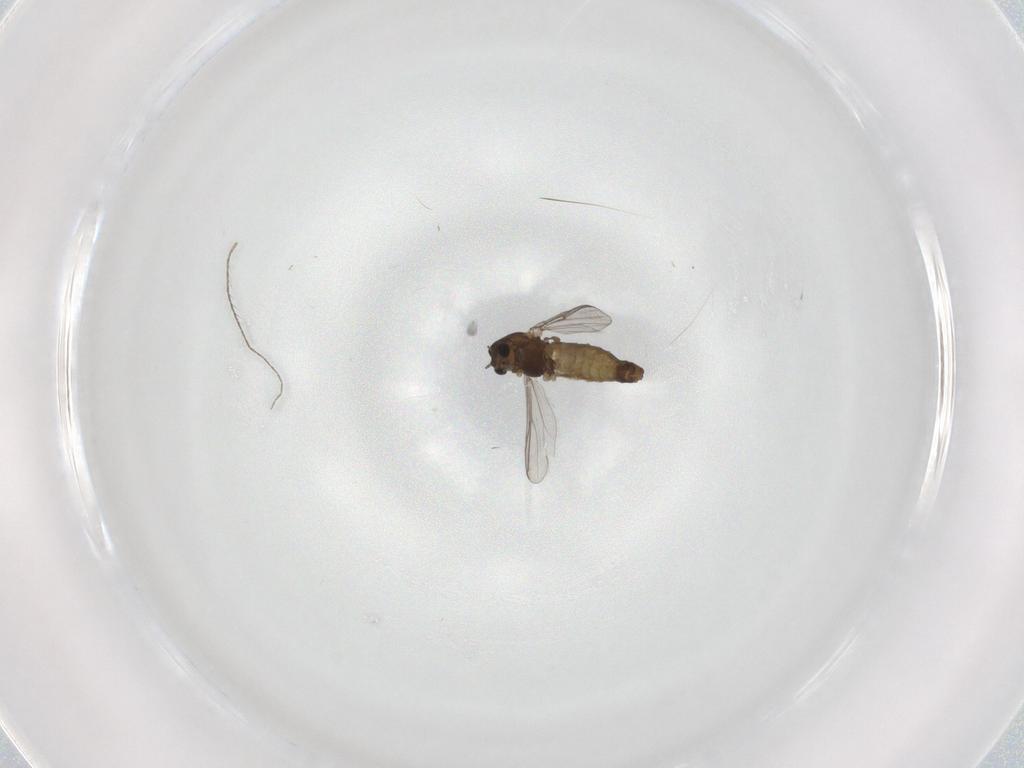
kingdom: Animalia
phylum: Arthropoda
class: Insecta
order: Diptera
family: Chironomidae
